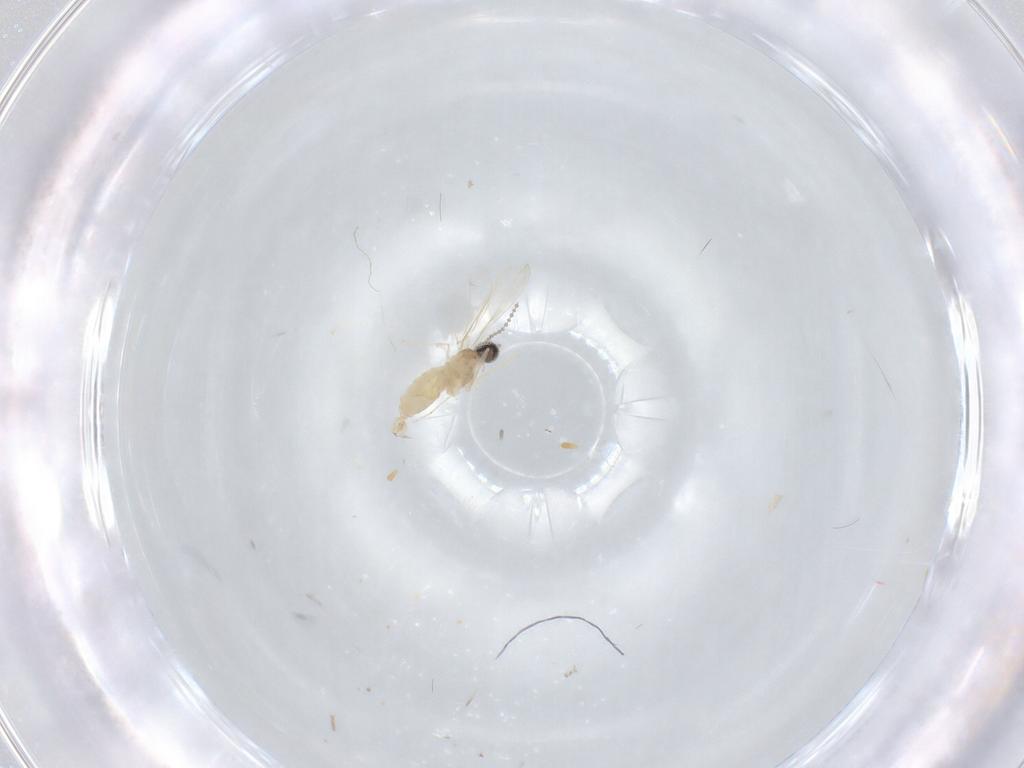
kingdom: Animalia
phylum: Arthropoda
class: Insecta
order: Diptera
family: Cecidomyiidae
